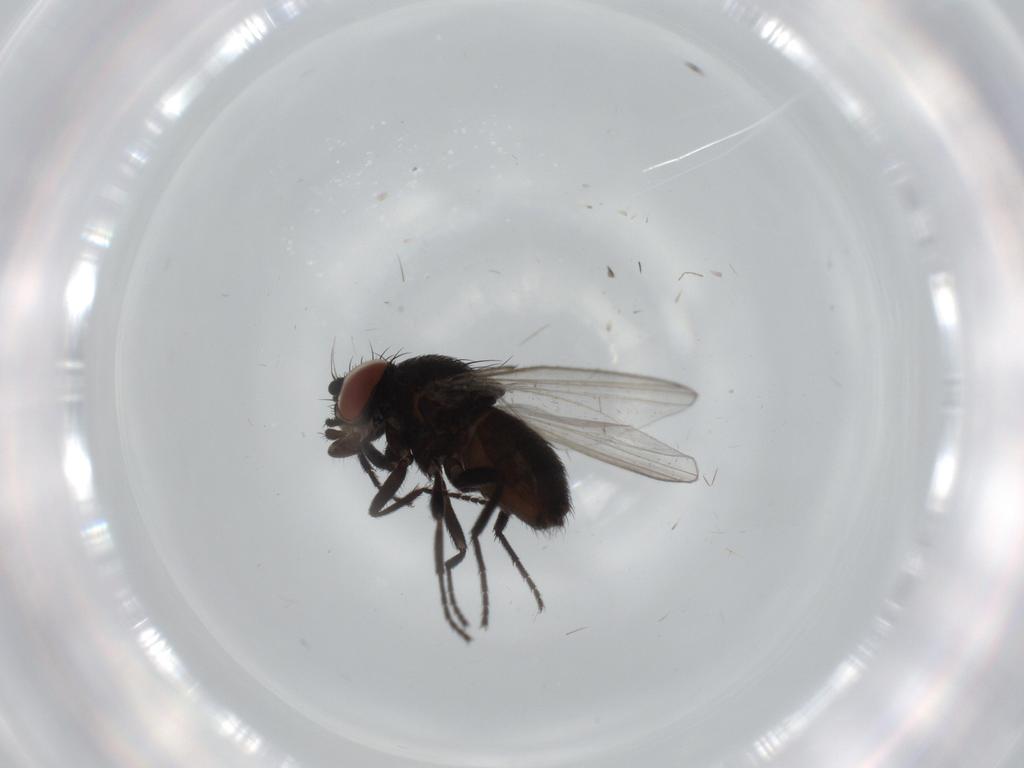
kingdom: Animalia
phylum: Arthropoda
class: Insecta
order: Diptera
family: Milichiidae
